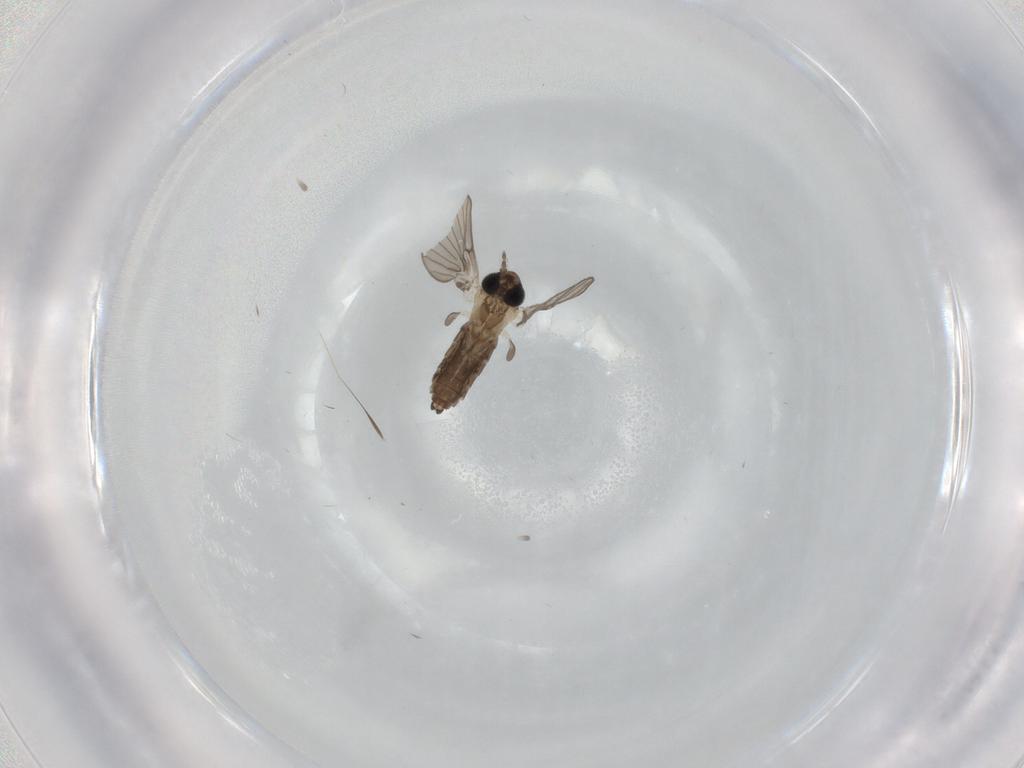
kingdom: Animalia
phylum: Arthropoda
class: Insecta
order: Diptera
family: Psychodidae
